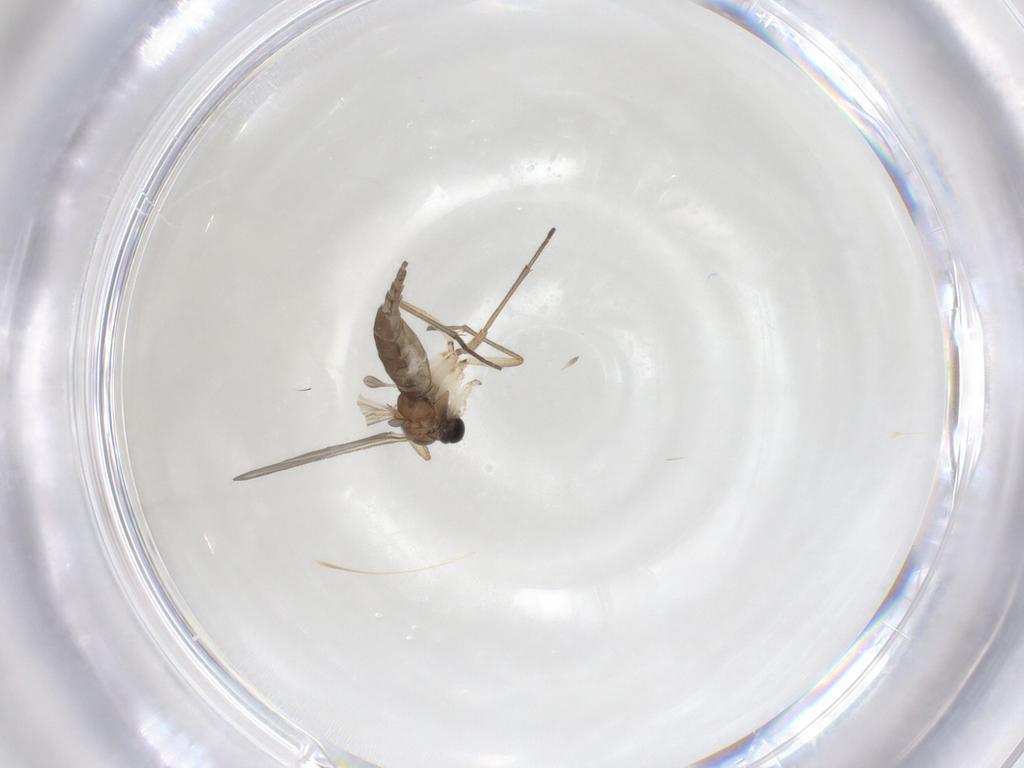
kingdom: Animalia
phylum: Arthropoda
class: Insecta
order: Diptera
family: Sciaridae
